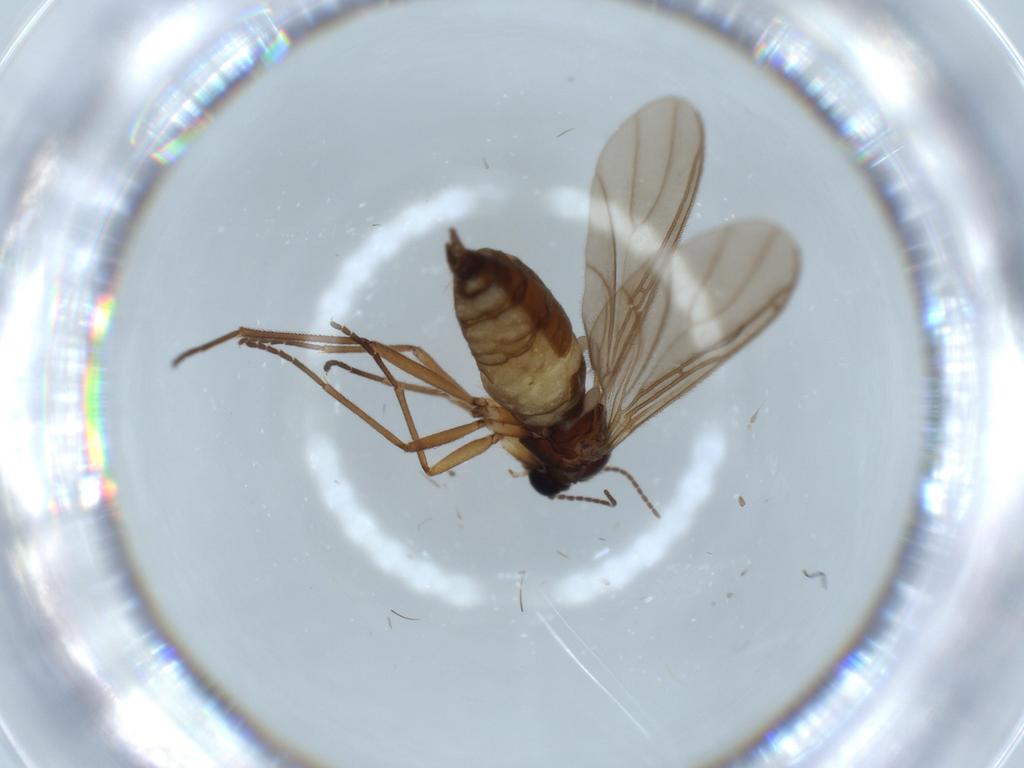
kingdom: Animalia
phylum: Arthropoda
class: Insecta
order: Diptera
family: Sciaridae
